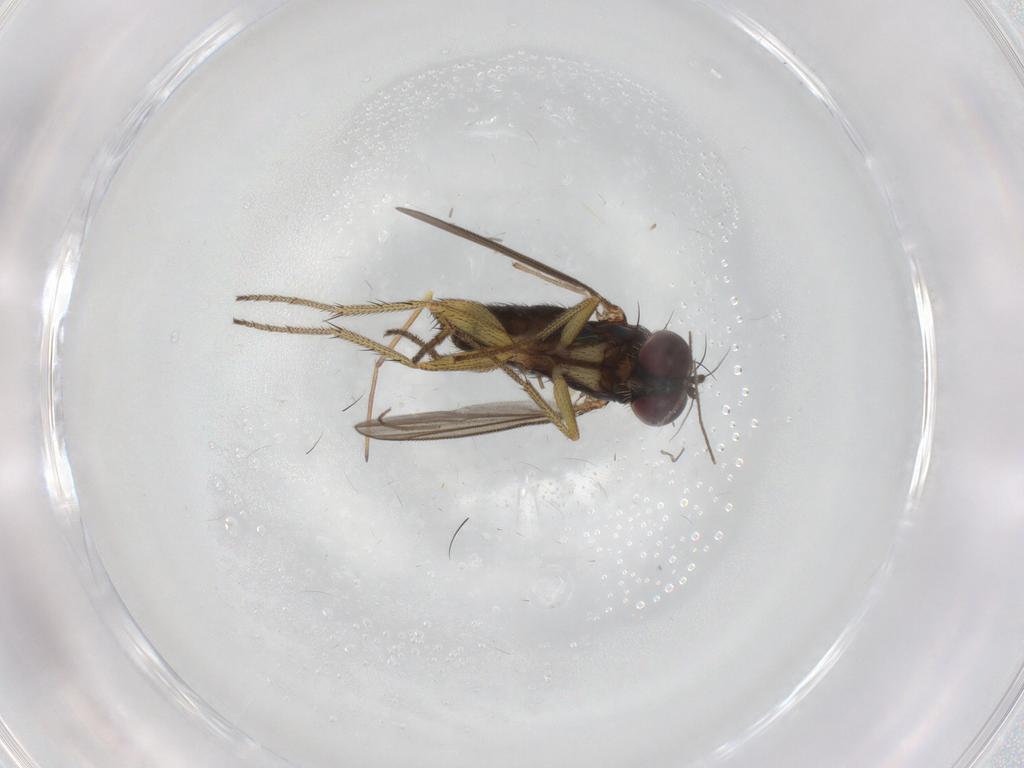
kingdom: Animalia
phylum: Arthropoda
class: Insecta
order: Diptera
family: Dolichopodidae
